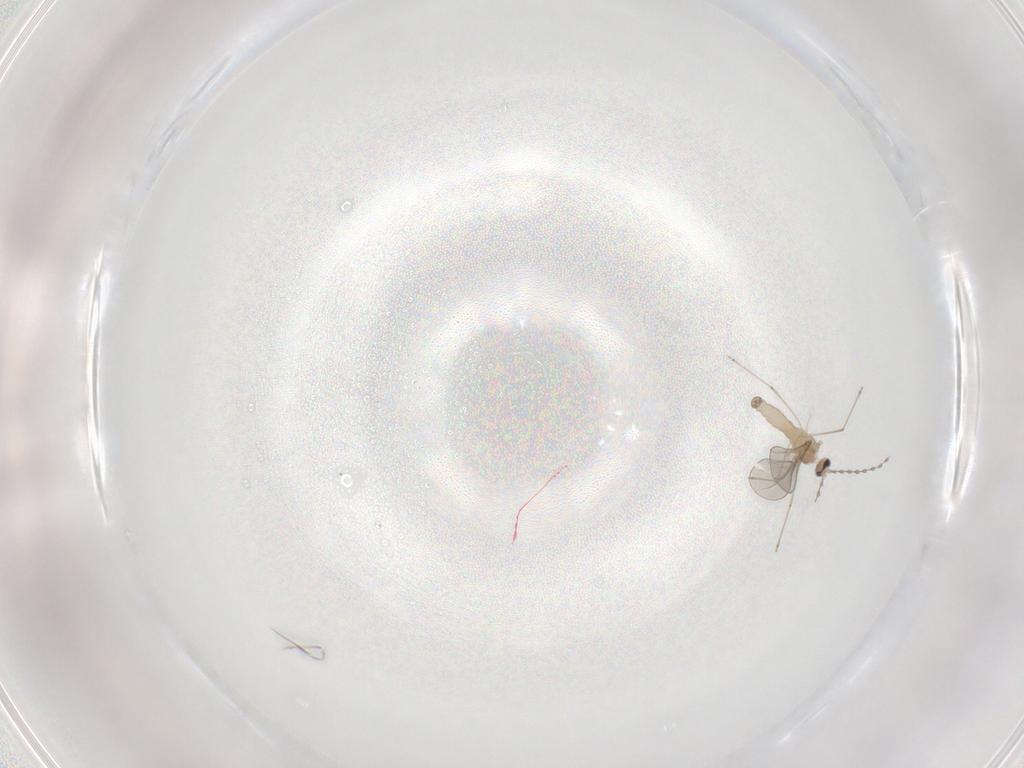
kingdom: Animalia
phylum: Arthropoda
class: Insecta
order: Diptera
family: Cecidomyiidae
